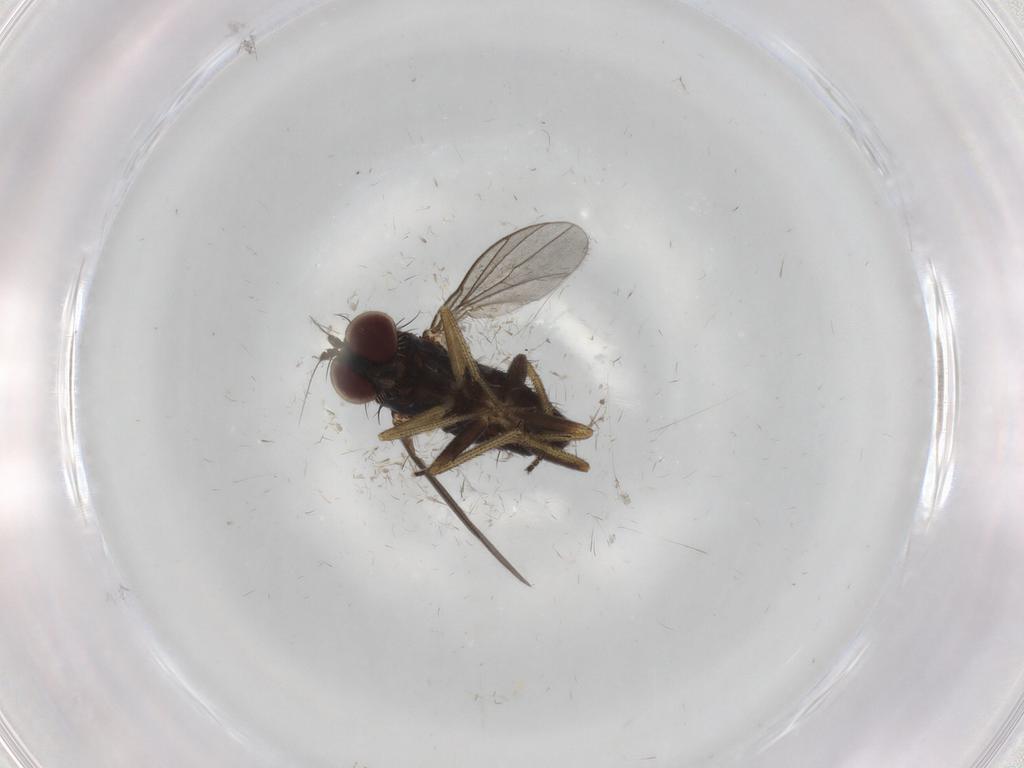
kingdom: Animalia
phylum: Arthropoda
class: Insecta
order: Diptera
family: Dolichopodidae
